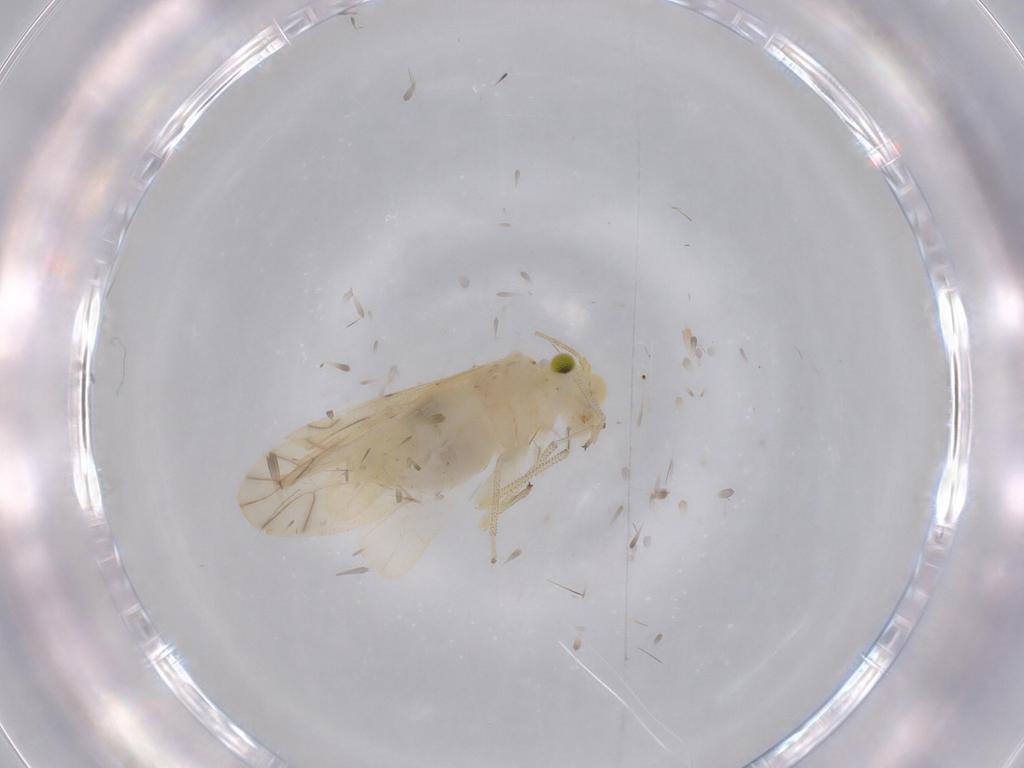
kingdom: Animalia
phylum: Arthropoda
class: Insecta
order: Psocodea
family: Caeciliusidae
